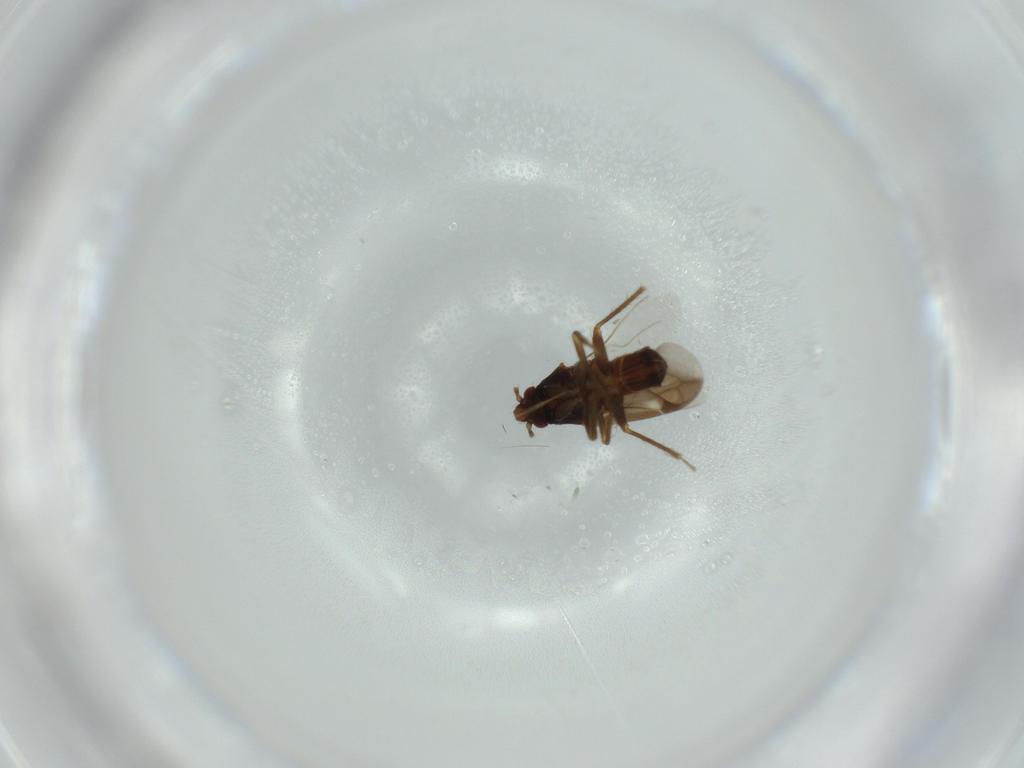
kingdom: Animalia
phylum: Arthropoda
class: Insecta
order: Hemiptera
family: Ceratocombidae
